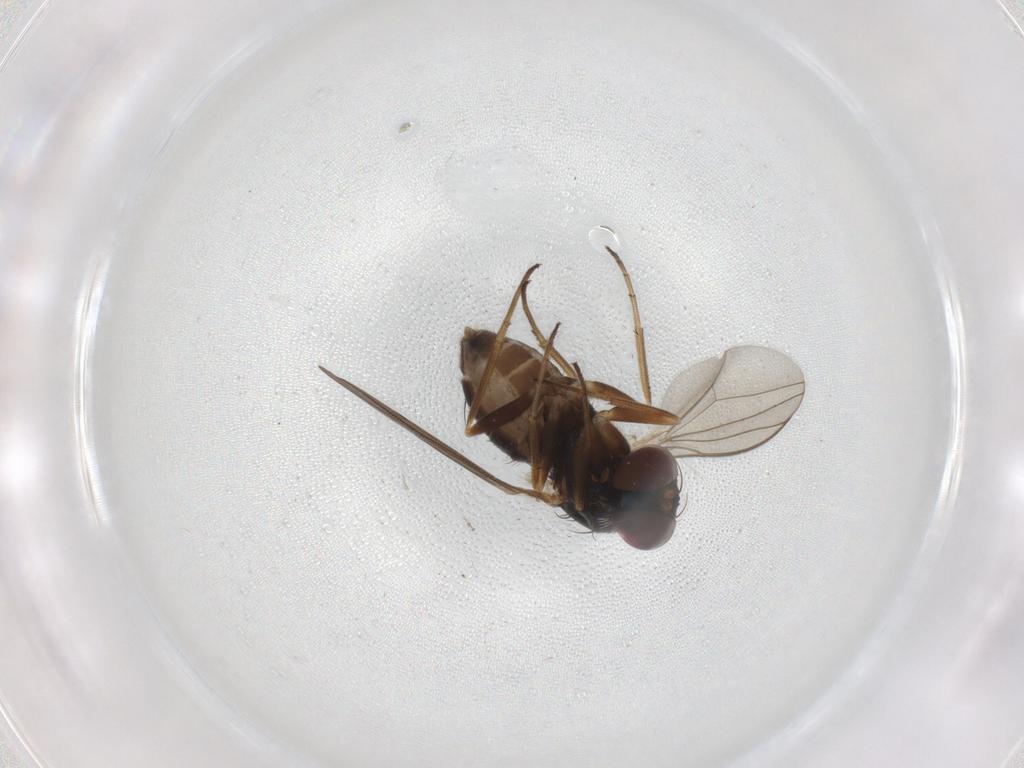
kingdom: Animalia
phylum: Arthropoda
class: Insecta
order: Diptera
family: Dolichopodidae
